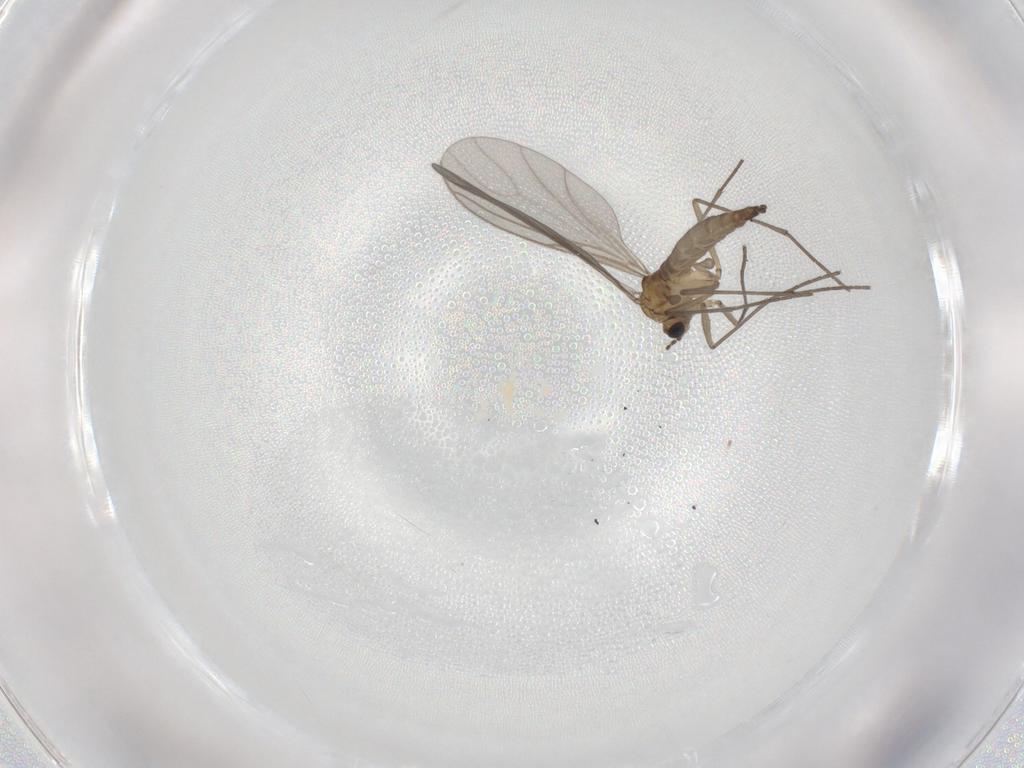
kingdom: Animalia
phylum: Arthropoda
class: Insecta
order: Diptera
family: Sciaridae
